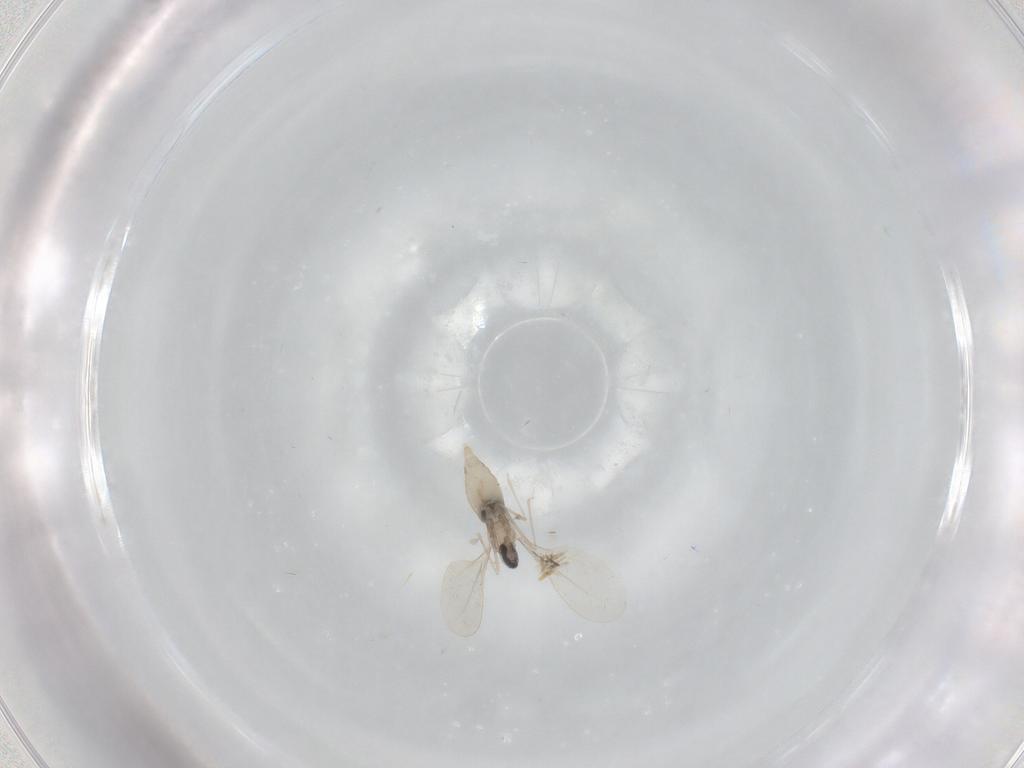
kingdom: Animalia
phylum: Arthropoda
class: Insecta
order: Diptera
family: Cecidomyiidae
